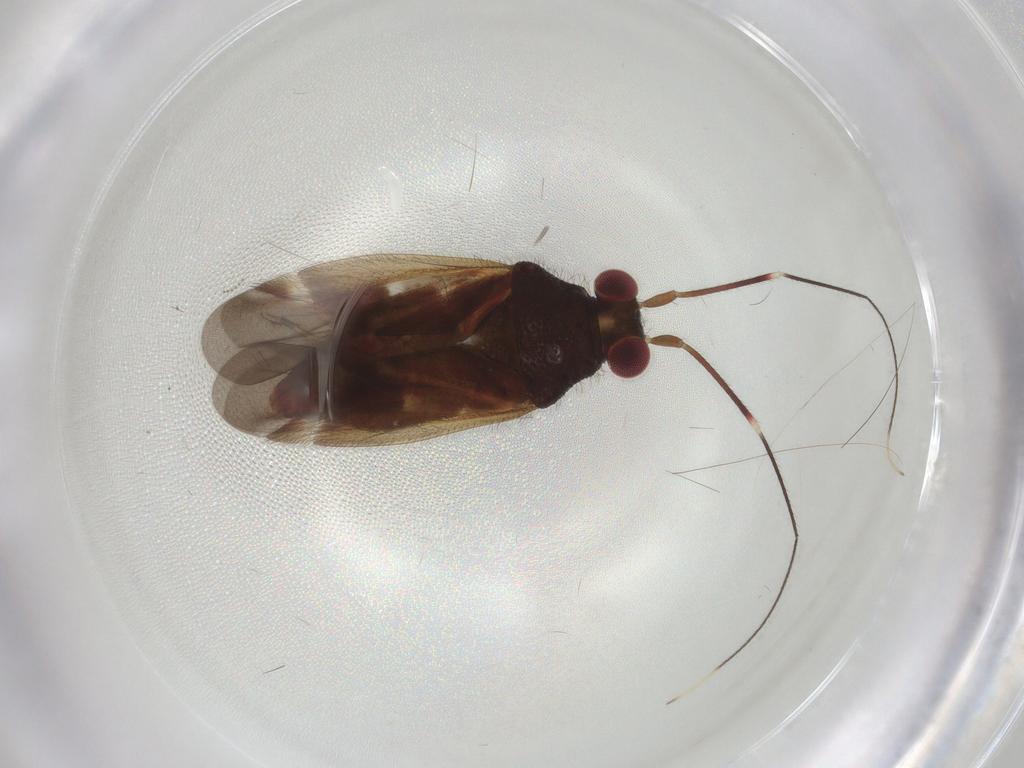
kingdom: Animalia
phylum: Arthropoda
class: Insecta
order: Hemiptera
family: Miridae
